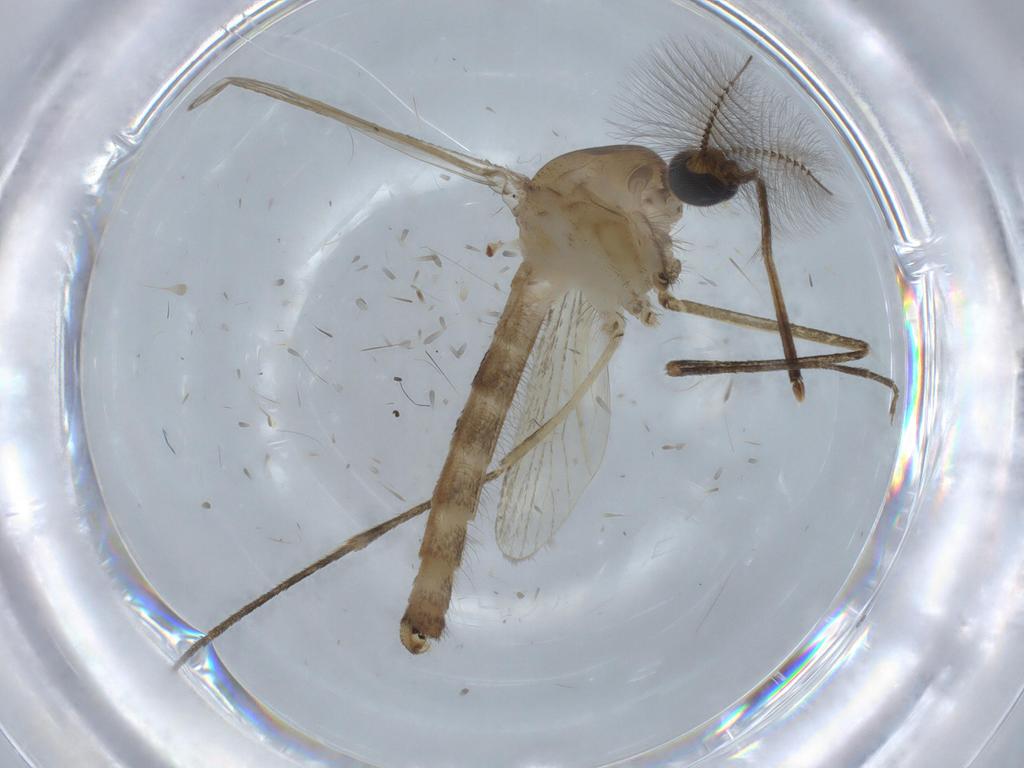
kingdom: Animalia
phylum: Arthropoda
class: Insecta
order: Diptera
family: Culicidae
